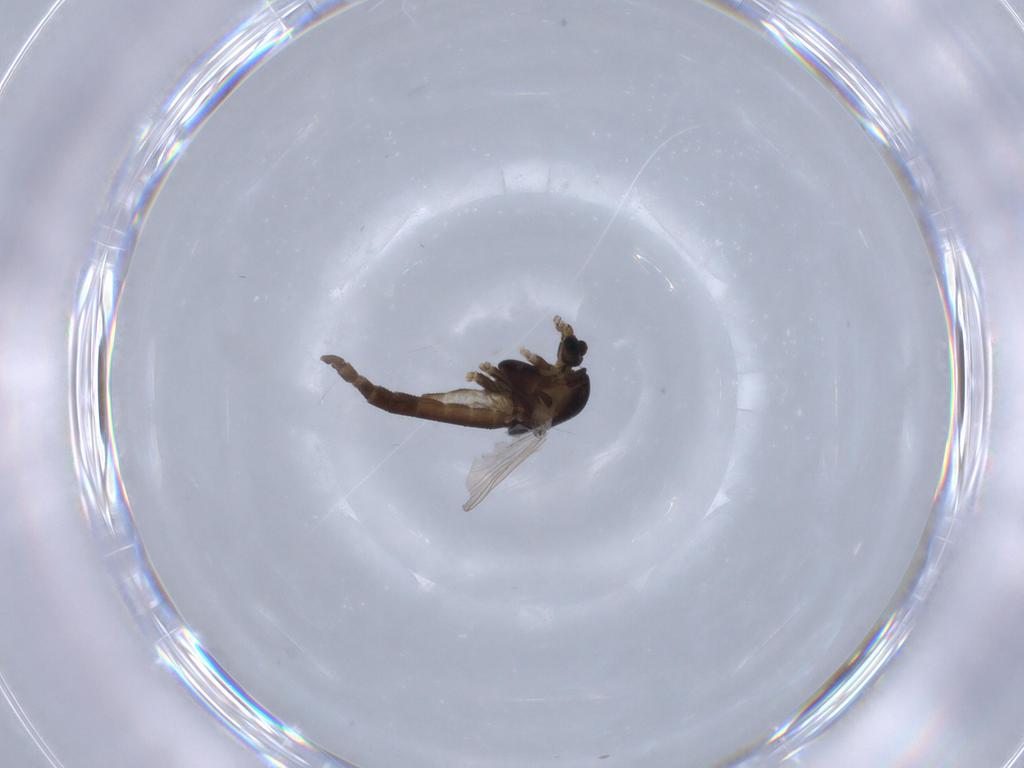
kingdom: Animalia
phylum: Arthropoda
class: Insecta
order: Diptera
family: Chironomidae
